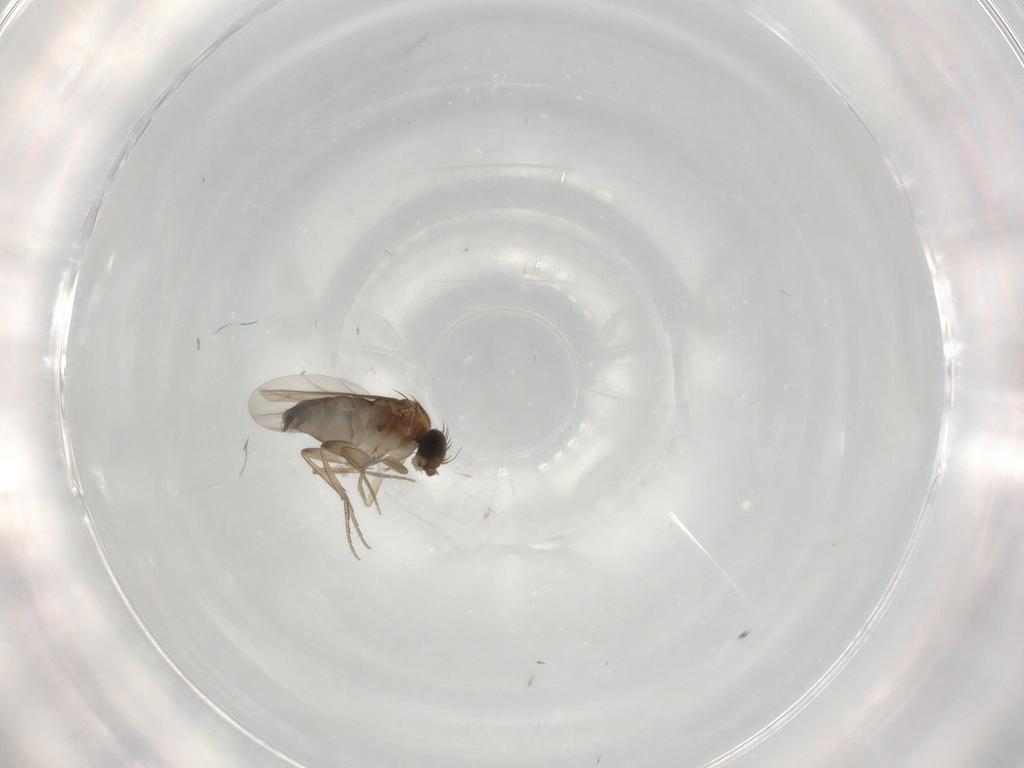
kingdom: Animalia
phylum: Arthropoda
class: Insecta
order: Diptera
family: Phoridae
